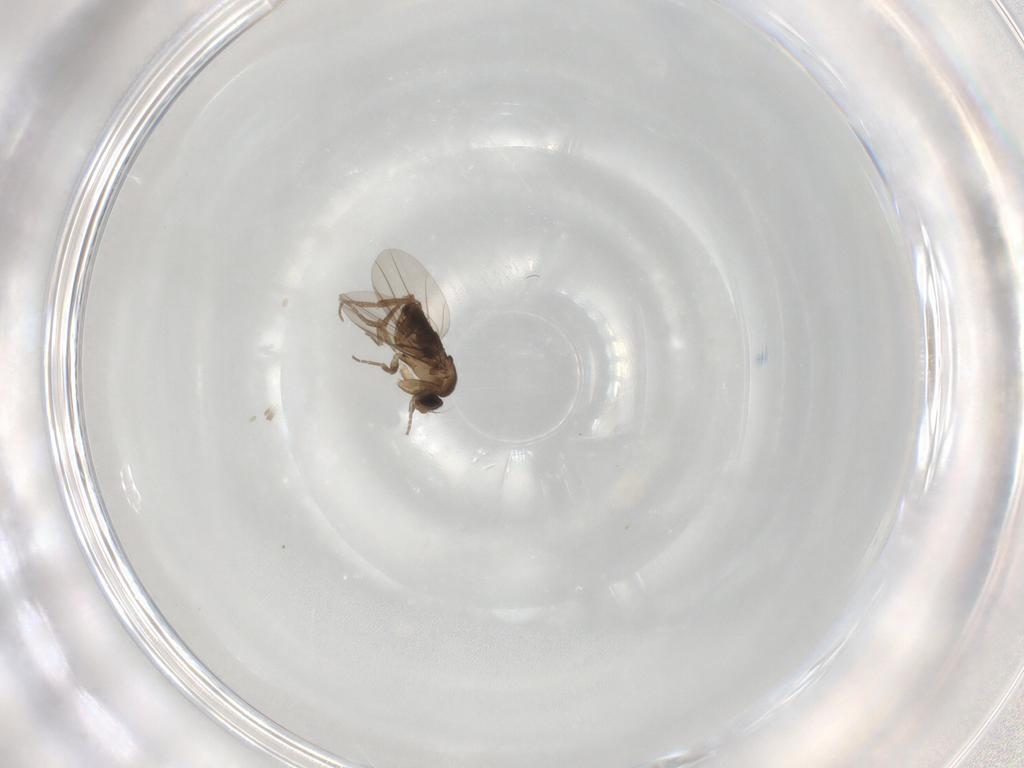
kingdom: Animalia
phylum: Arthropoda
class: Insecta
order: Diptera
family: Phoridae
